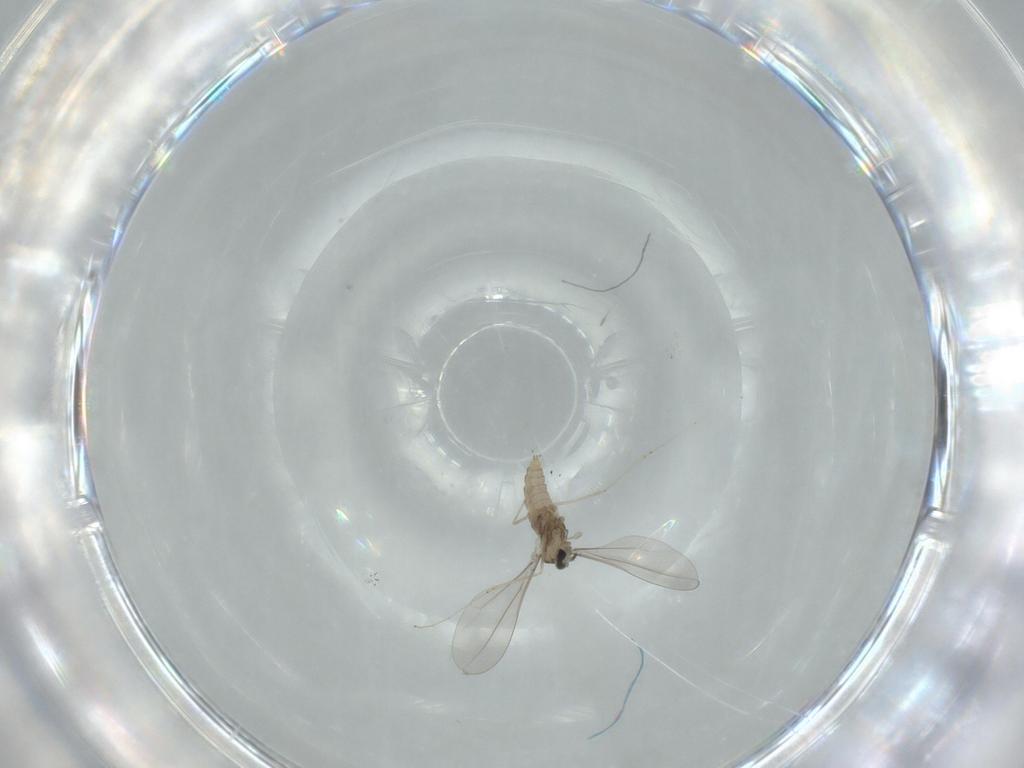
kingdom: Animalia
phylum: Arthropoda
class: Insecta
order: Diptera
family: Cecidomyiidae
